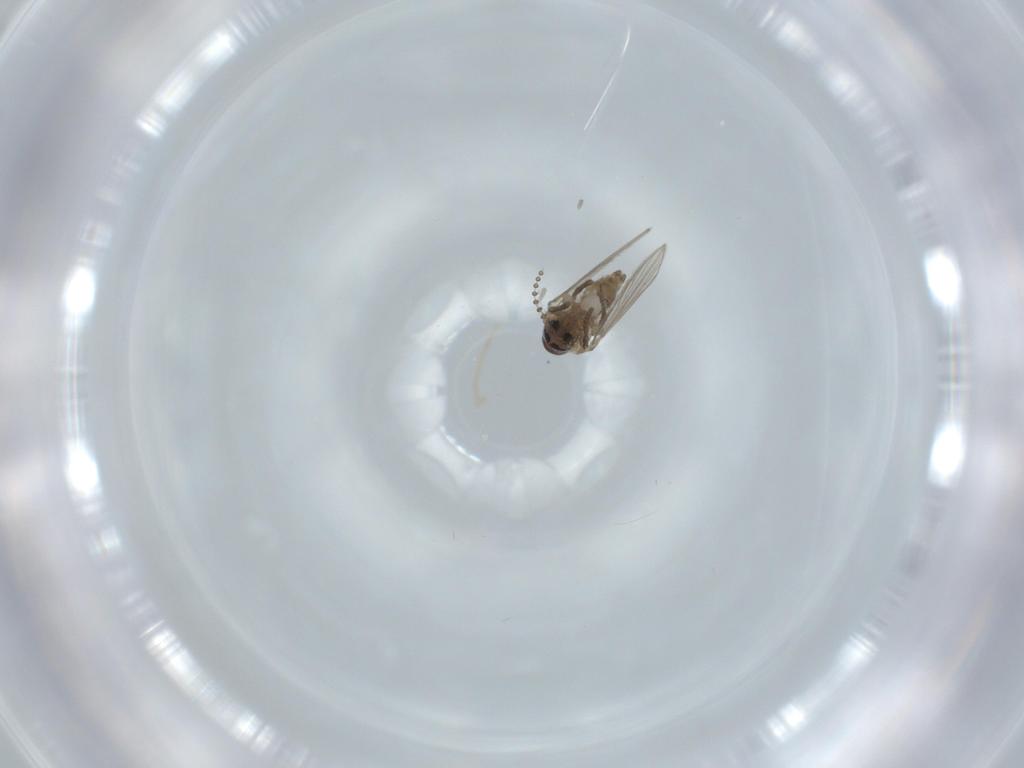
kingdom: Animalia
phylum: Arthropoda
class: Insecta
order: Diptera
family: Psychodidae
